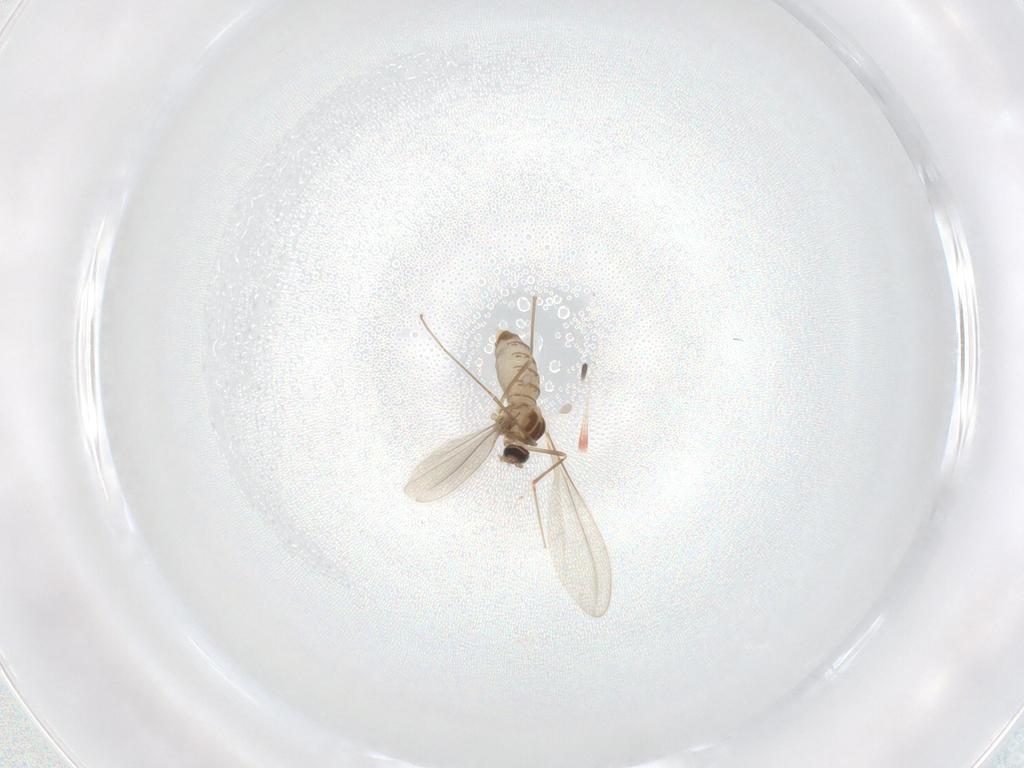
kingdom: Animalia
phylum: Arthropoda
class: Insecta
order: Diptera
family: Cecidomyiidae
